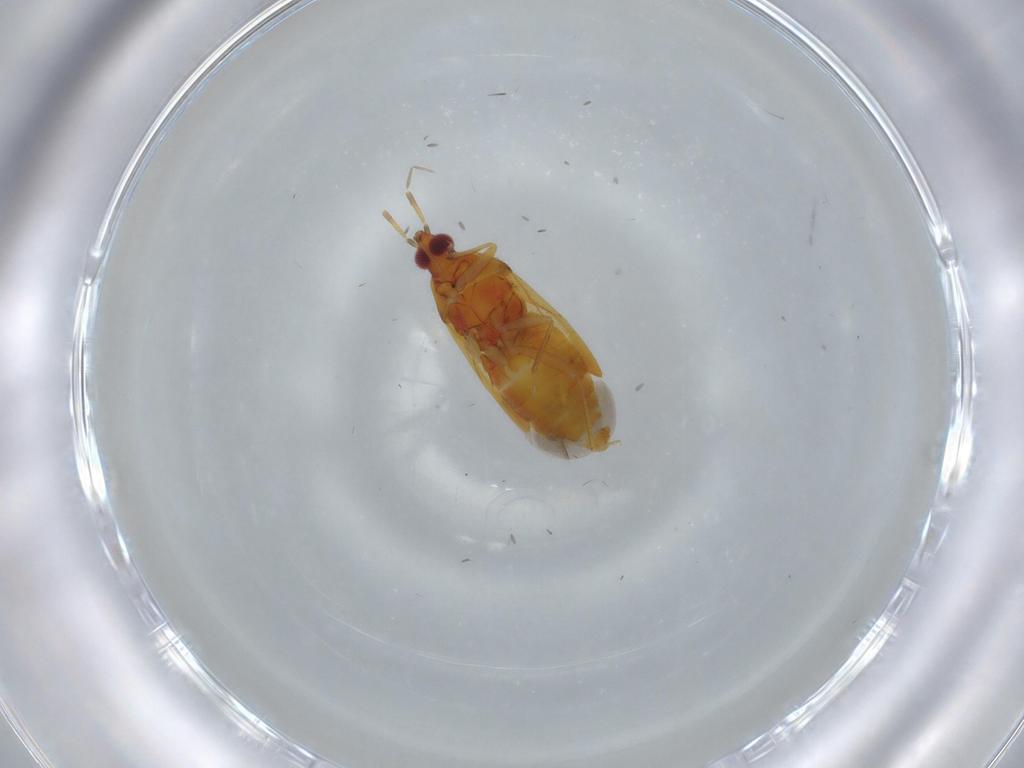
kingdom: Animalia
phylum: Arthropoda
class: Insecta
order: Hemiptera
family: Anthocoridae
